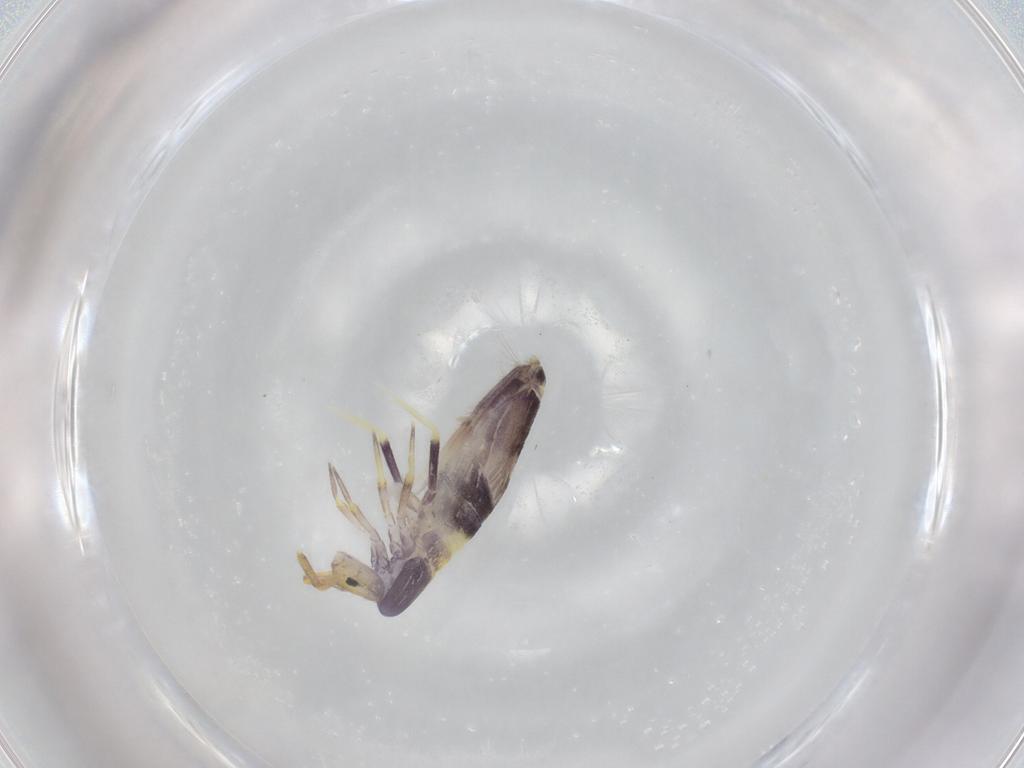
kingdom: Animalia
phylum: Arthropoda
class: Collembola
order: Entomobryomorpha
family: Entomobryidae
